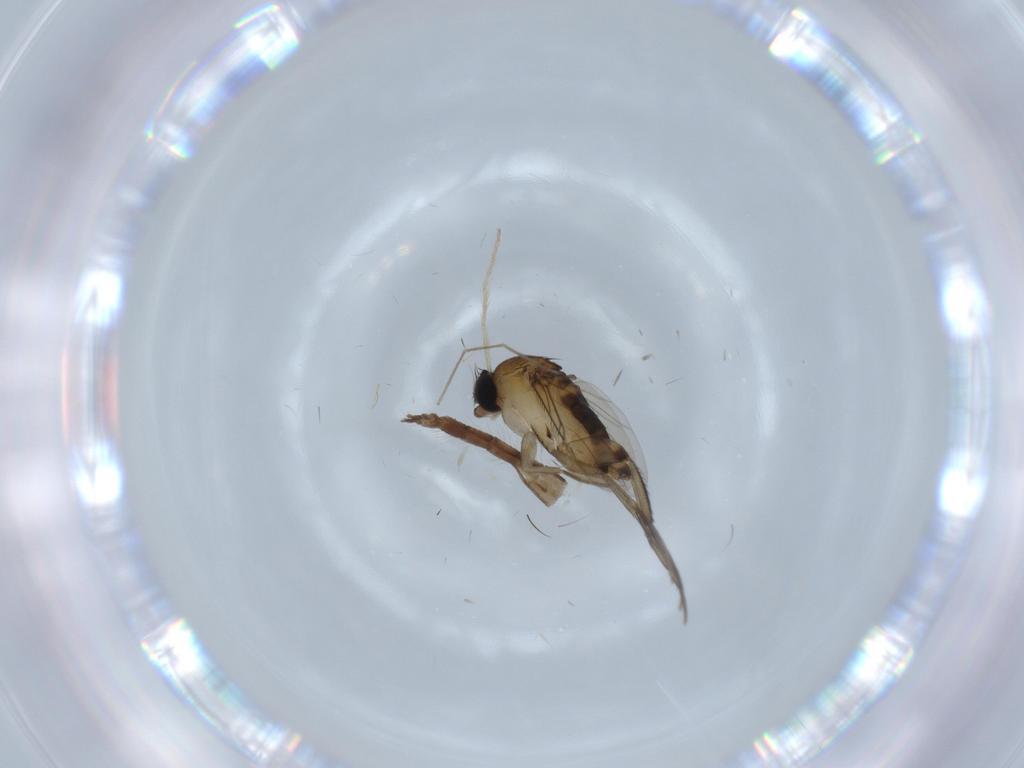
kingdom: Animalia
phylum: Arthropoda
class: Insecta
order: Diptera
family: Phoridae
